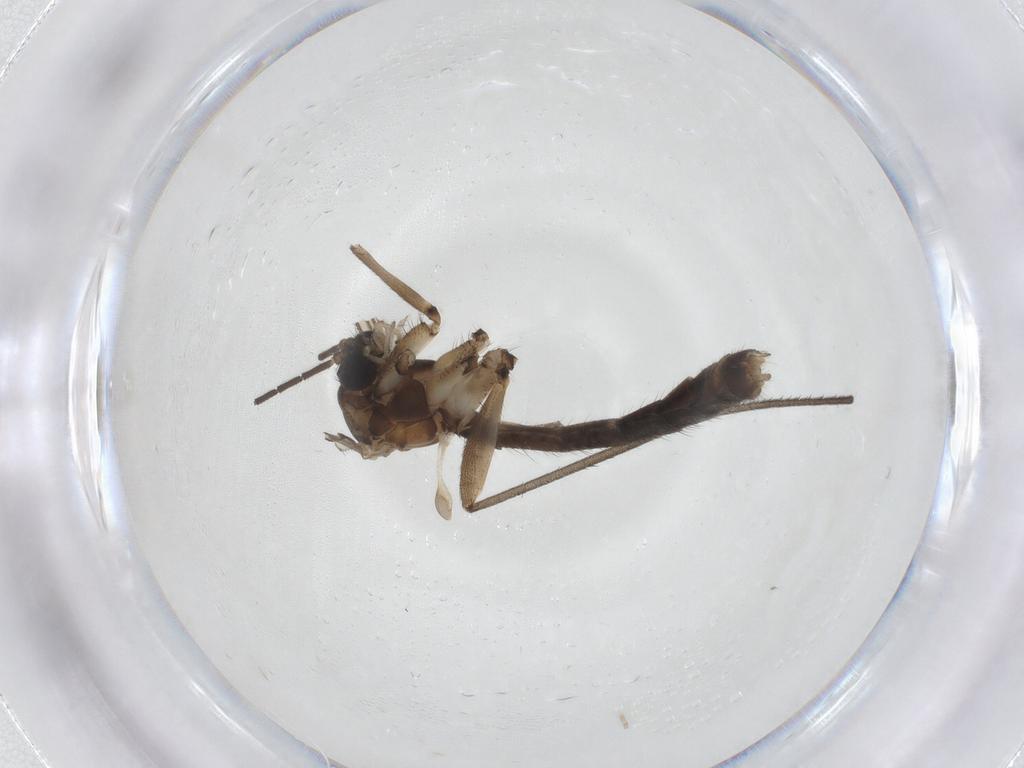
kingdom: Animalia
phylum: Arthropoda
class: Insecta
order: Diptera
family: Mycetophilidae
